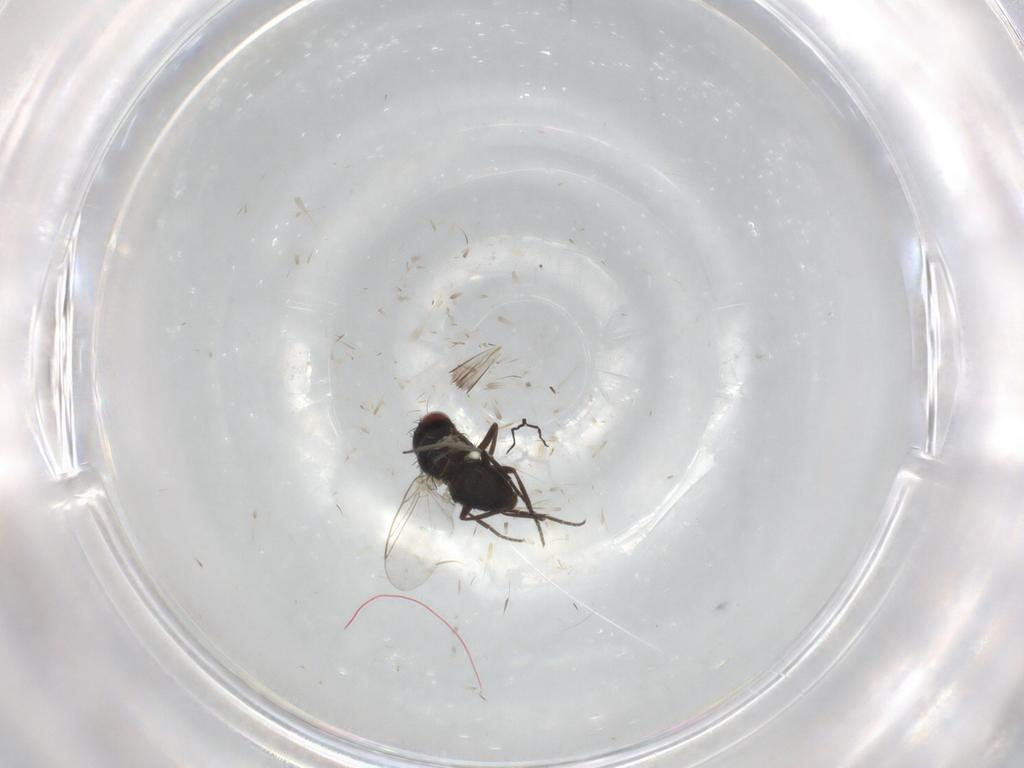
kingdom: Animalia
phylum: Arthropoda
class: Insecta
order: Diptera
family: Agromyzidae
